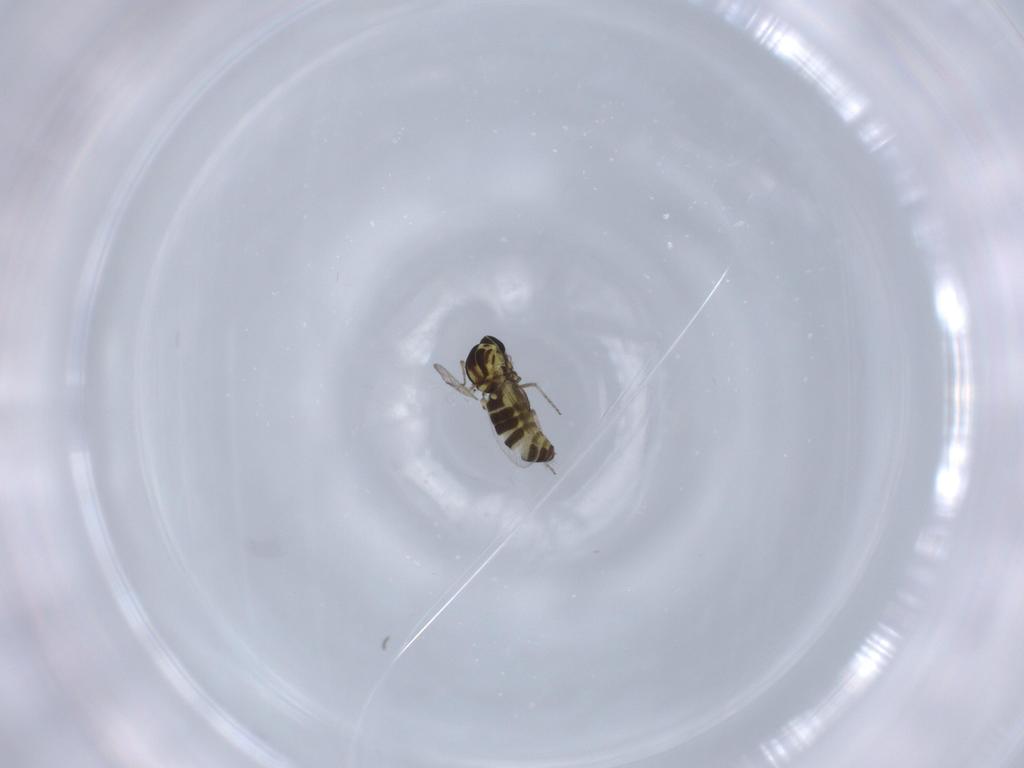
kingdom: Animalia
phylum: Arthropoda
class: Insecta
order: Diptera
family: Ceratopogonidae
